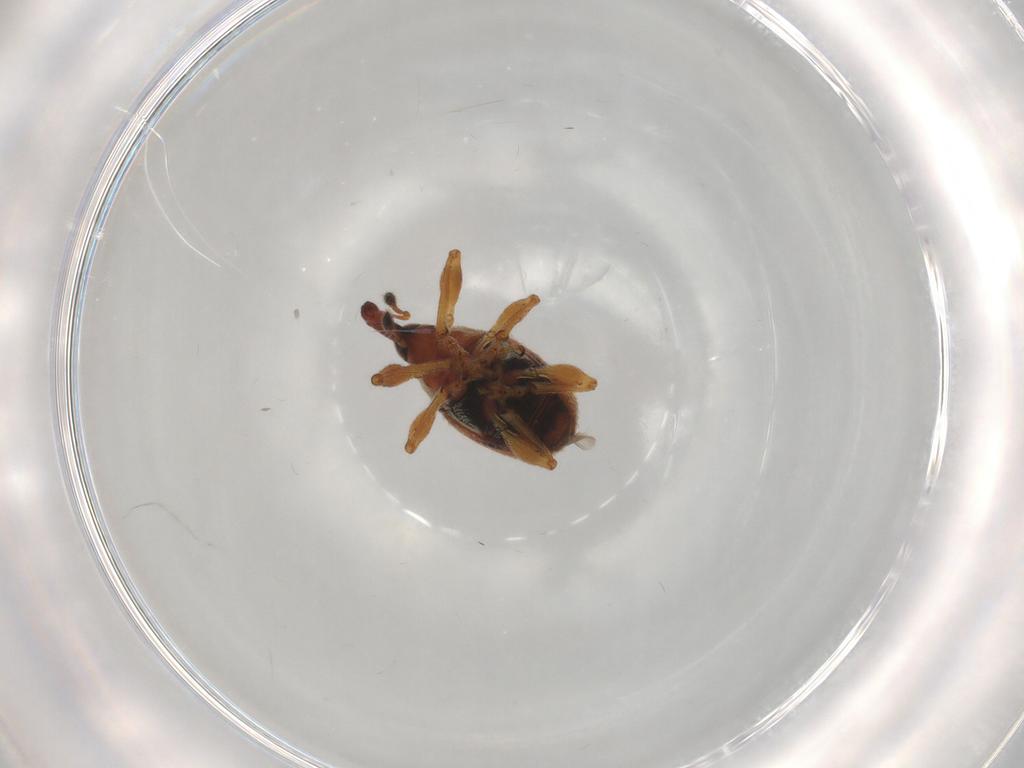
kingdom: Animalia
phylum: Arthropoda
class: Insecta
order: Coleoptera
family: Brentidae
